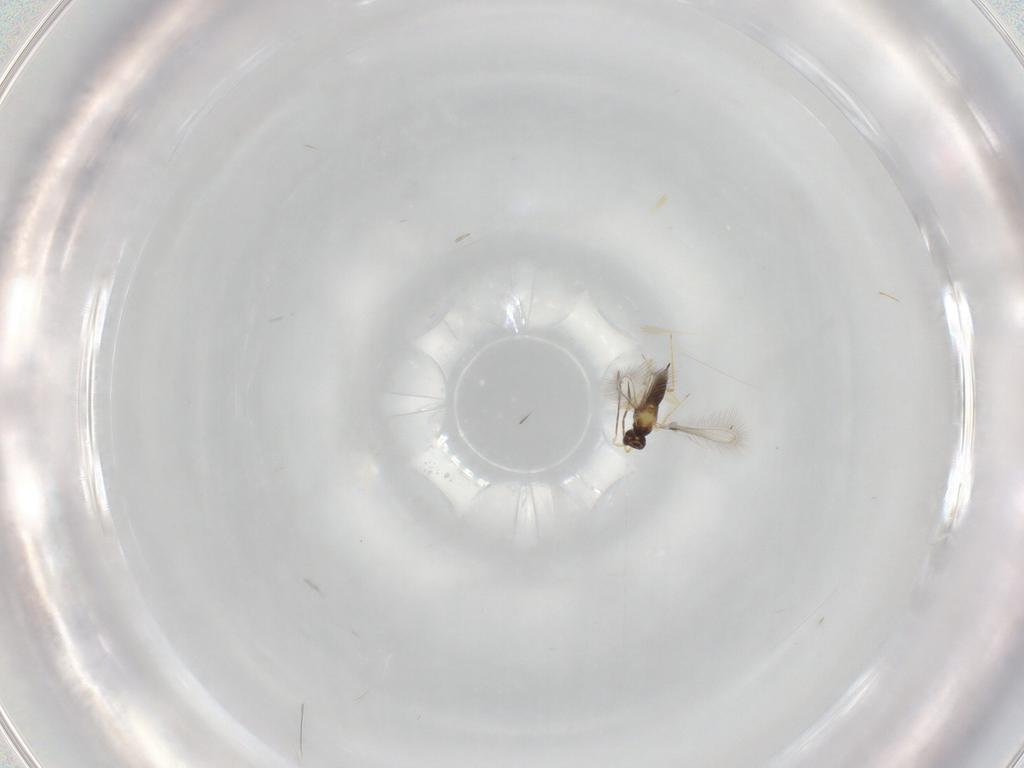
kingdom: Animalia
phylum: Arthropoda
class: Insecta
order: Hymenoptera
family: Mymaridae
